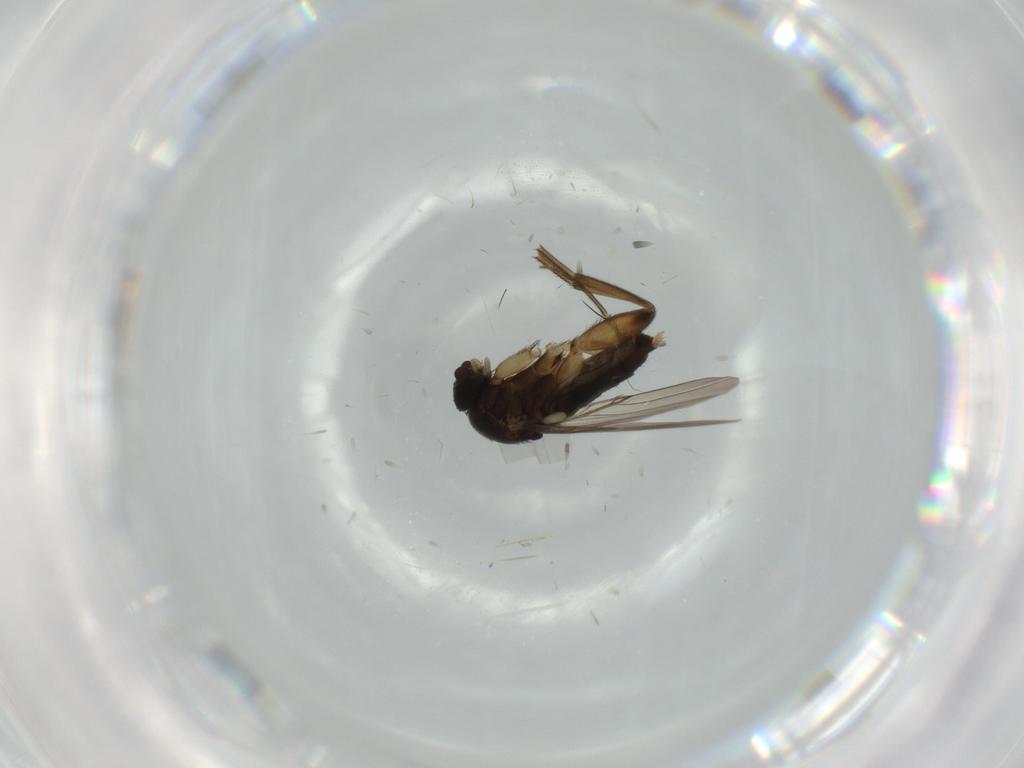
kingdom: Animalia
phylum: Arthropoda
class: Insecta
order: Diptera
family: Phoridae
